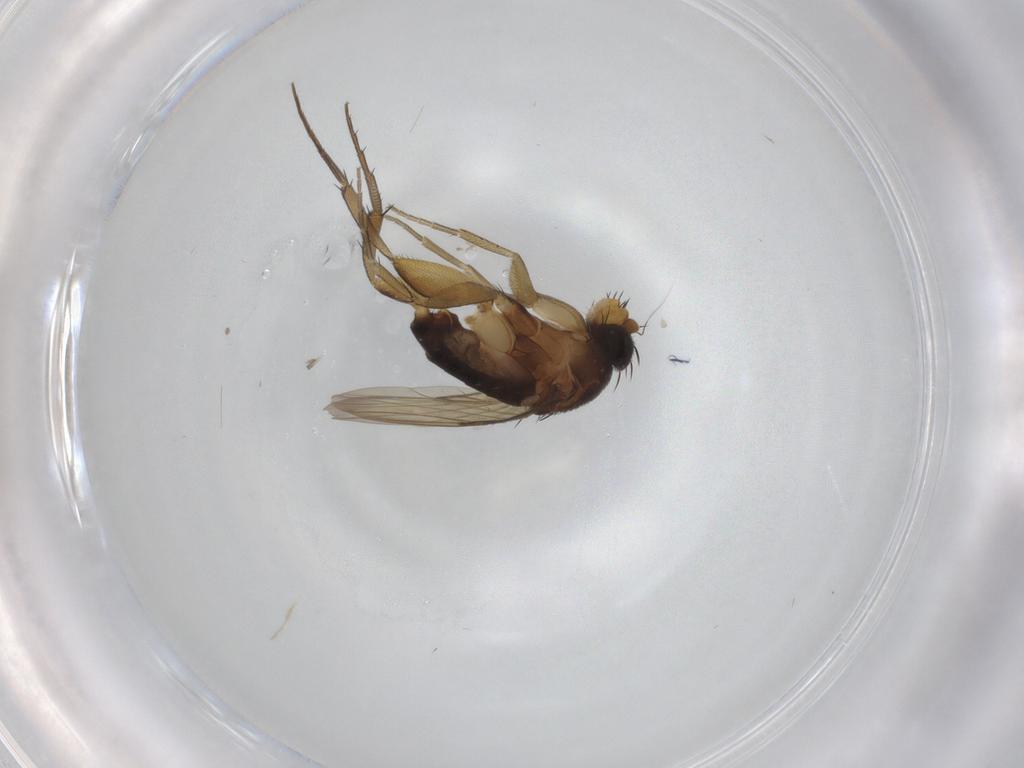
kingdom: Animalia
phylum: Arthropoda
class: Insecta
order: Diptera
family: Phoridae
